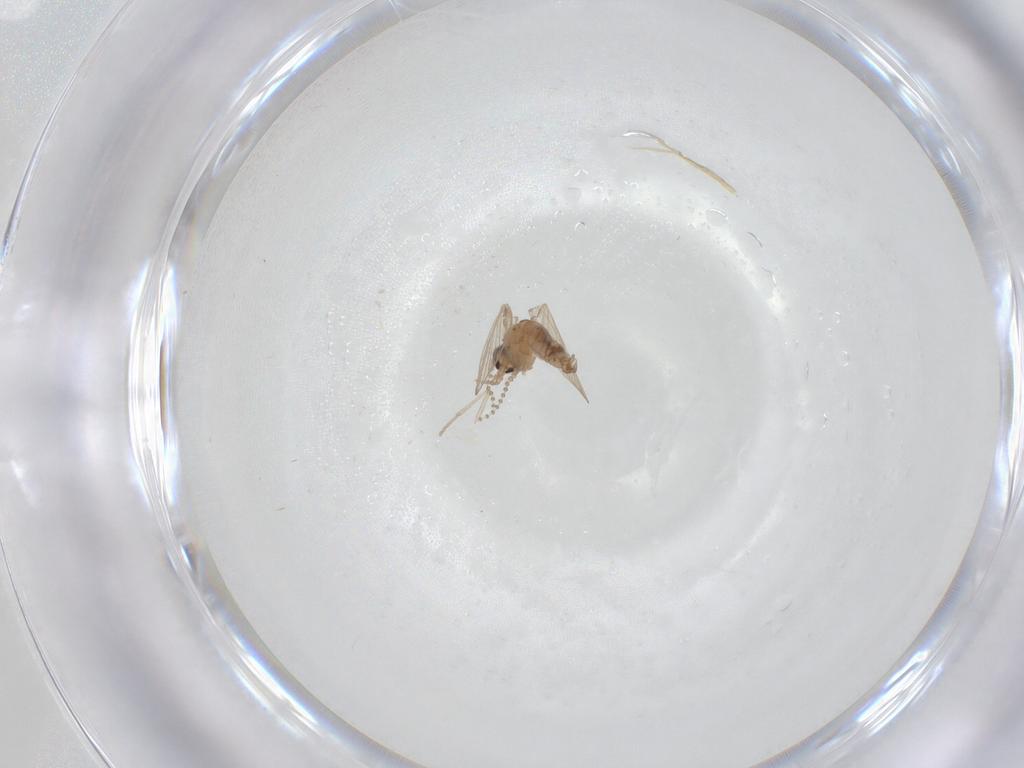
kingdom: Animalia
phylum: Arthropoda
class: Insecta
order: Diptera
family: Psychodidae
